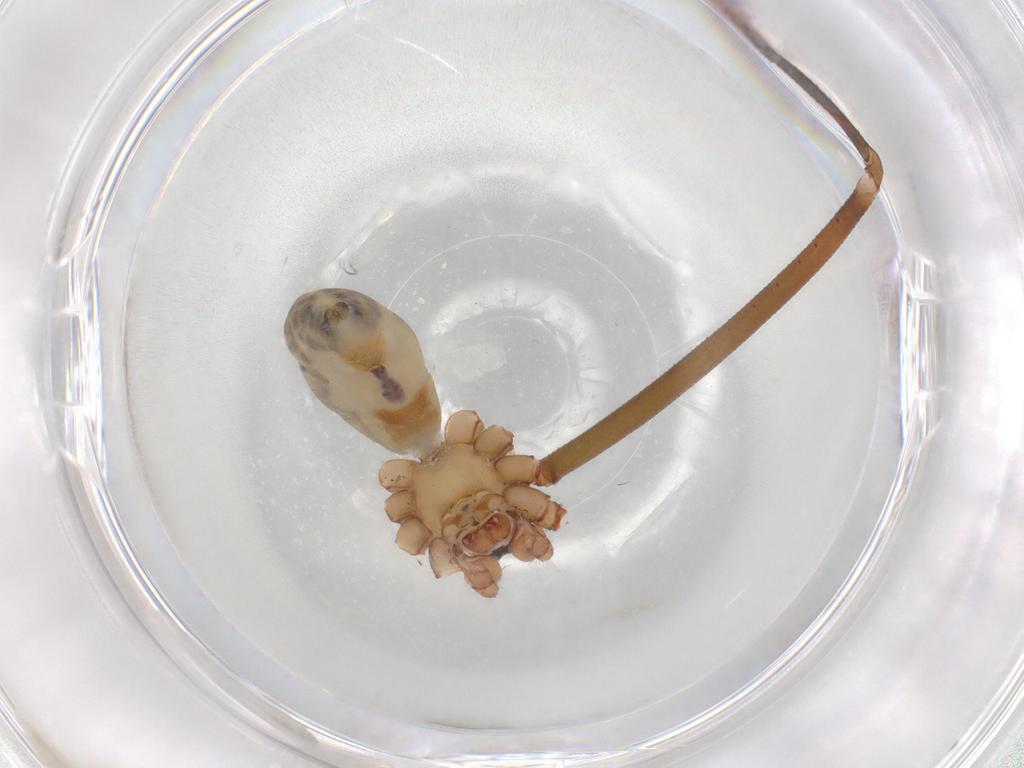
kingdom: Animalia
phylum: Arthropoda
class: Arachnida
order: Araneae
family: Pholcidae
